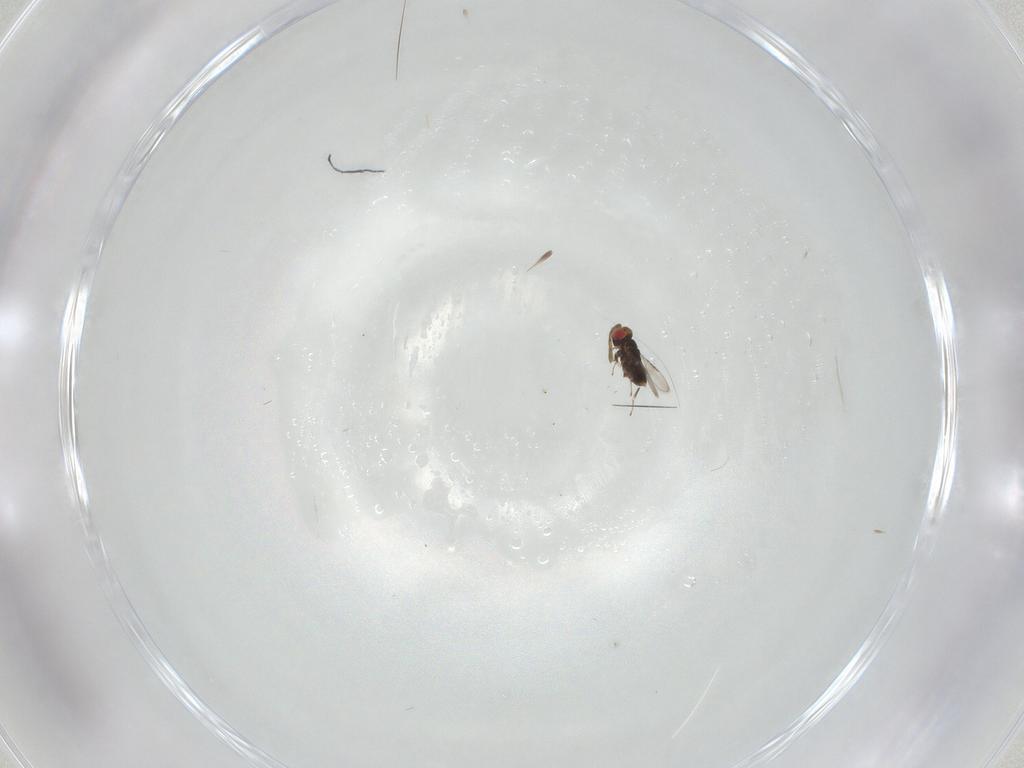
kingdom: Animalia
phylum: Arthropoda
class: Insecta
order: Hymenoptera
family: Azotidae
